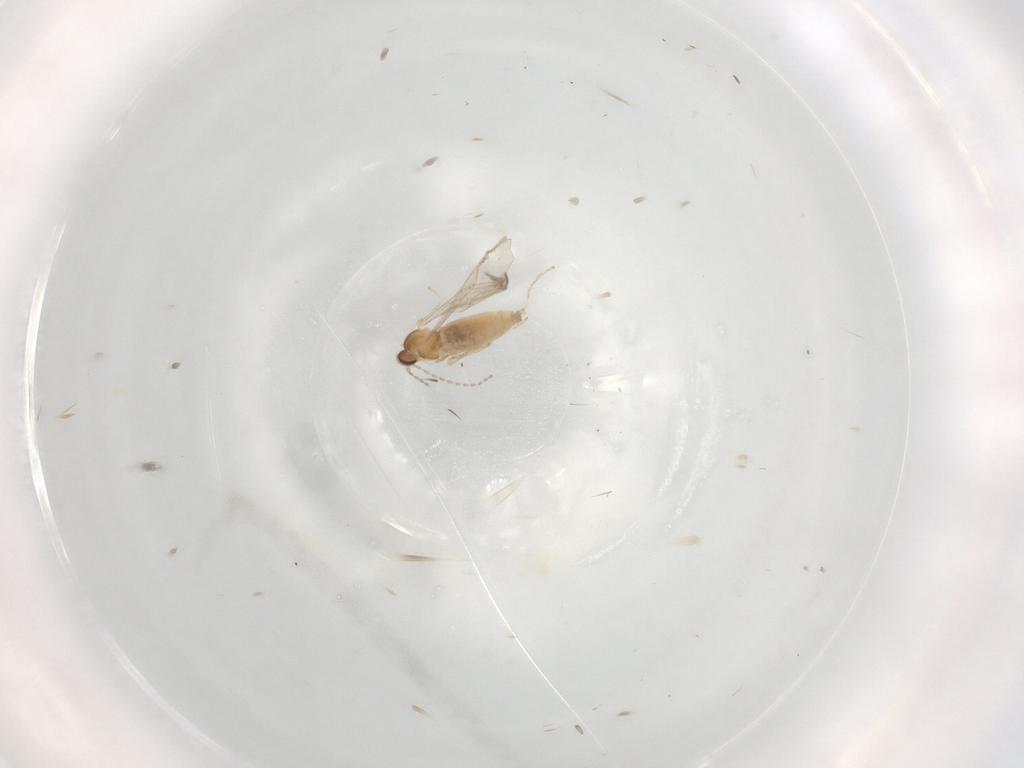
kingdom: Animalia
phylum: Arthropoda
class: Insecta
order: Diptera
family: Cecidomyiidae
